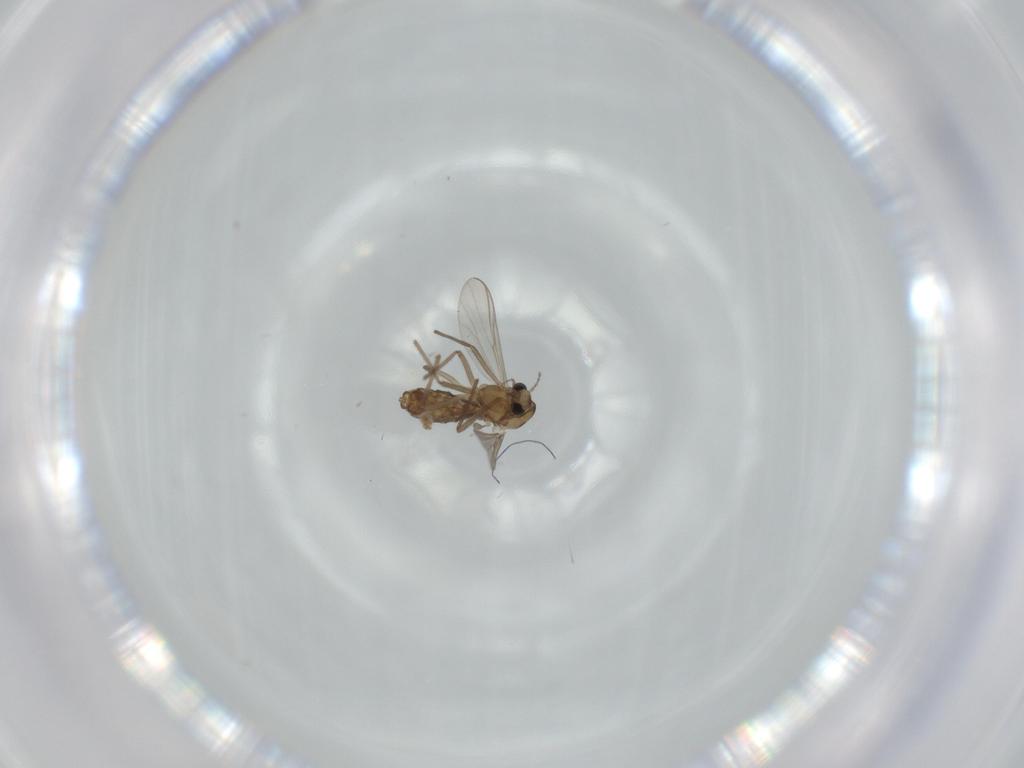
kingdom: Animalia
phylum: Arthropoda
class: Insecta
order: Diptera
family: Chironomidae
